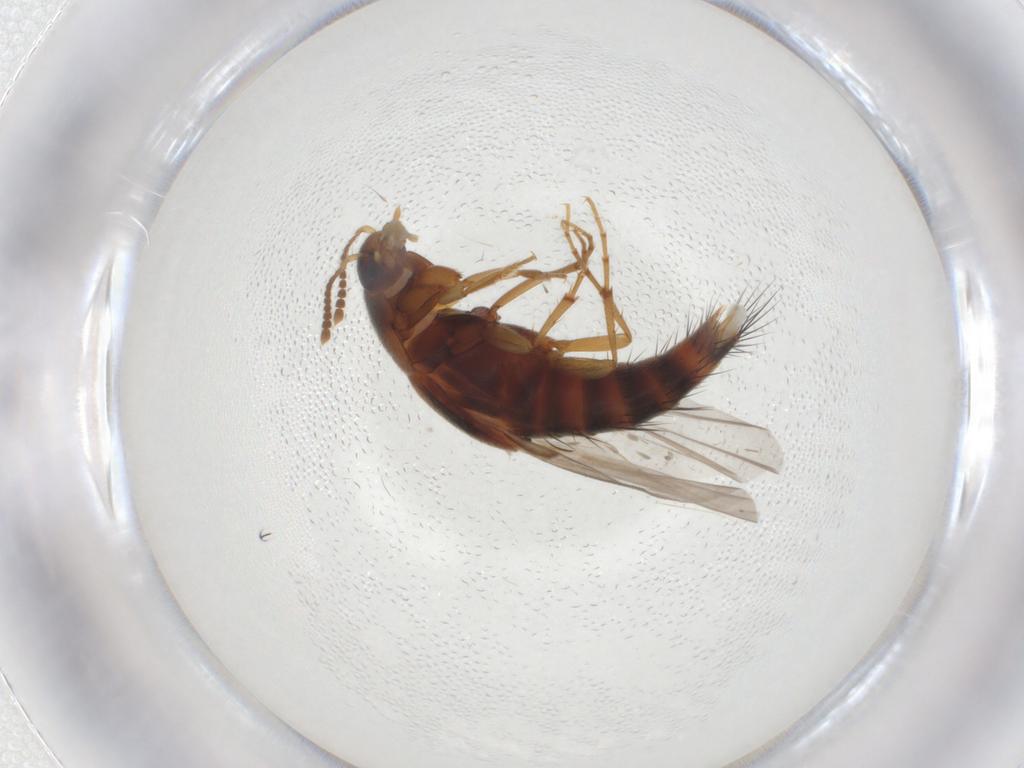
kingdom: Animalia
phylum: Arthropoda
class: Insecta
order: Coleoptera
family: Staphylinidae
